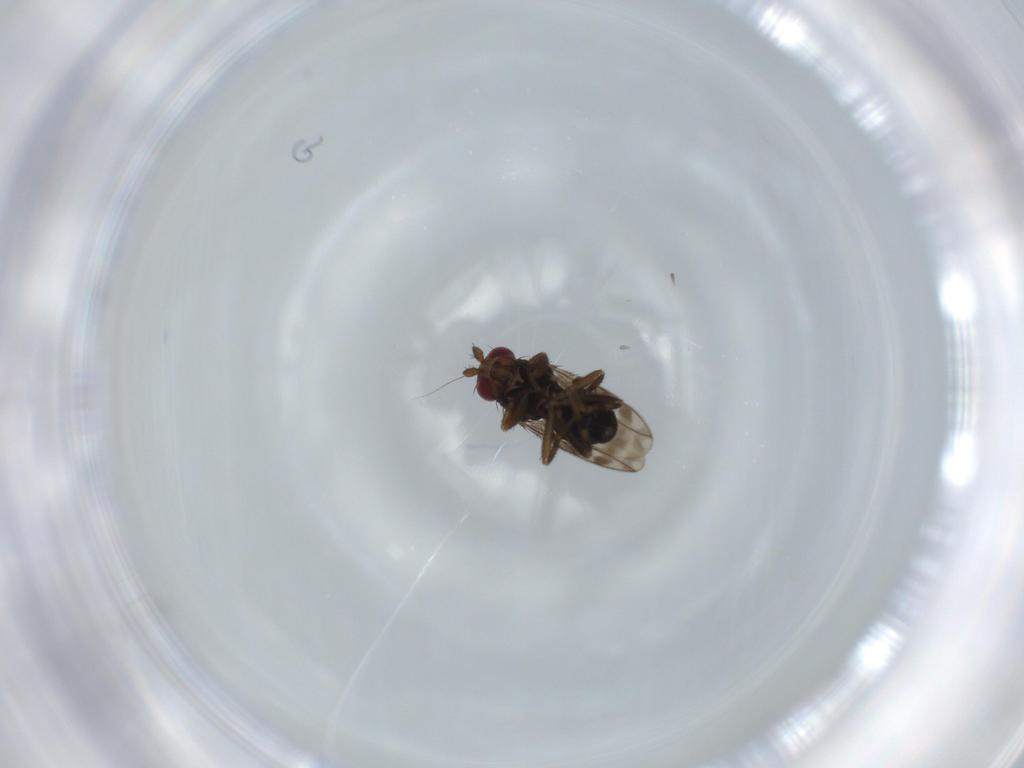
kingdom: Animalia
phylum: Arthropoda
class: Insecta
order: Diptera
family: Sphaeroceridae
